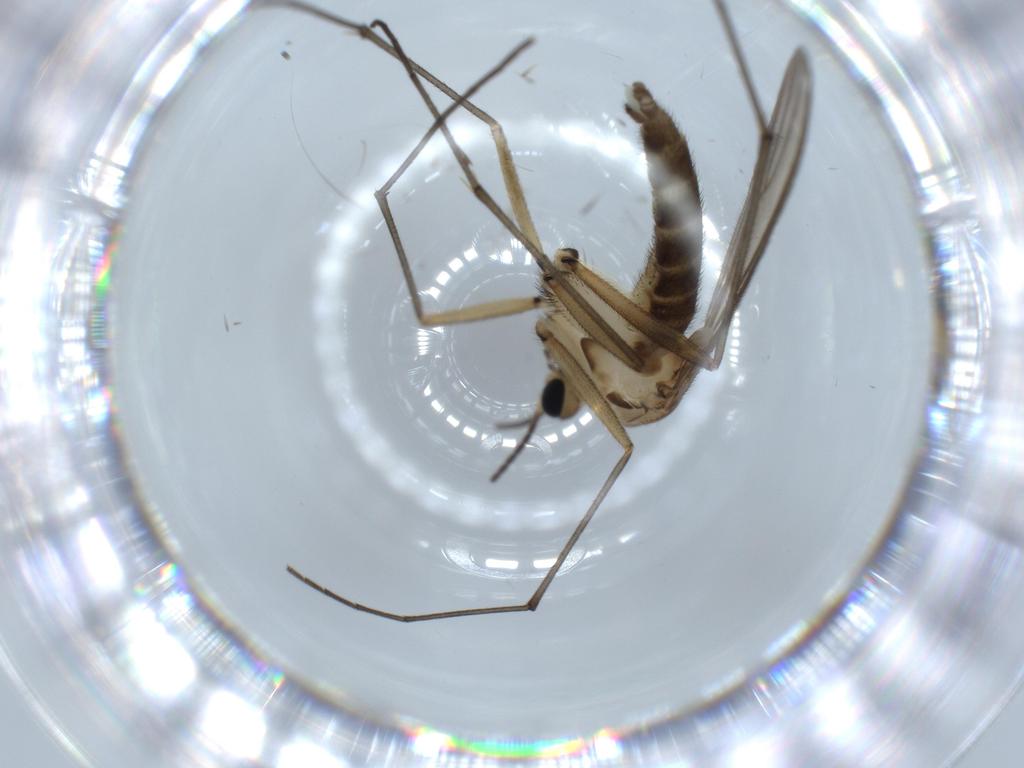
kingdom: Animalia
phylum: Arthropoda
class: Insecta
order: Diptera
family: Sciaridae
